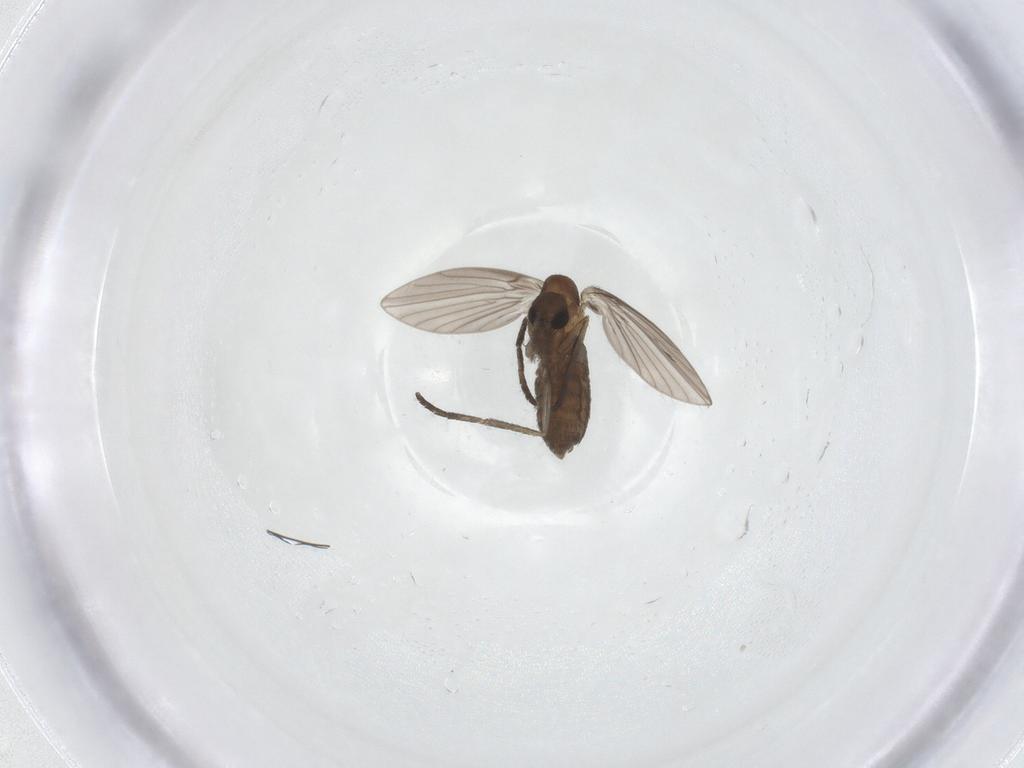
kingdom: Animalia
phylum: Arthropoda
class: Insecta
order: Diptera
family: Psychodidae
